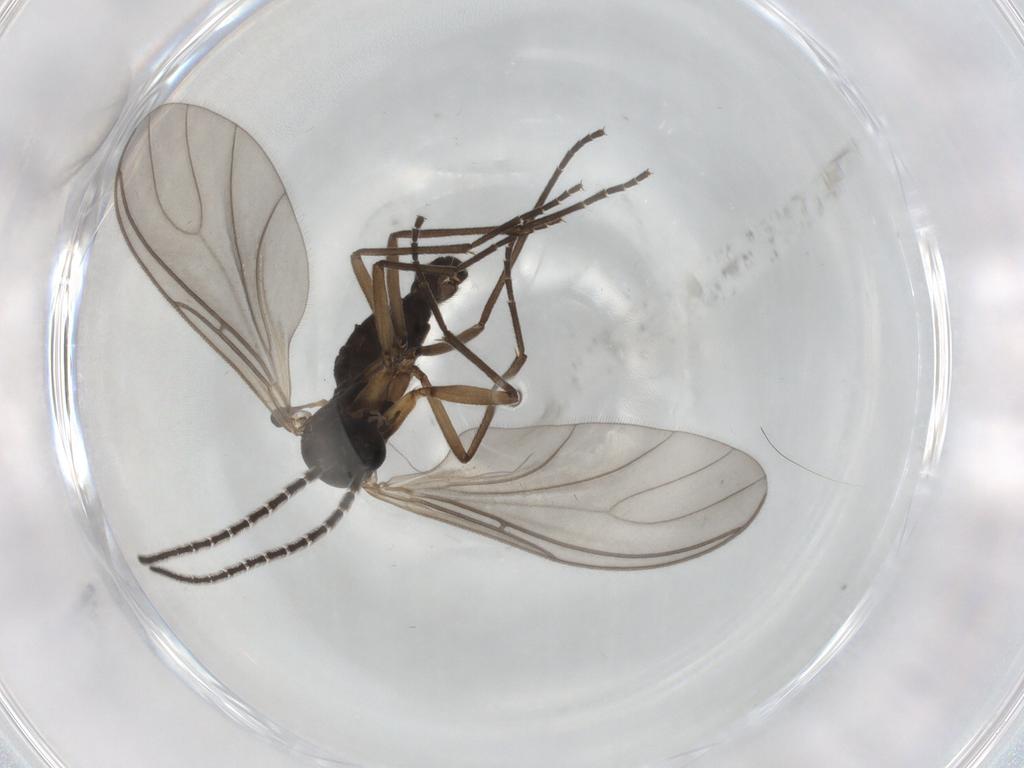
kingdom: Animalia
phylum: Arthropoda
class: Insecta
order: Diptera
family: Sciaridae
